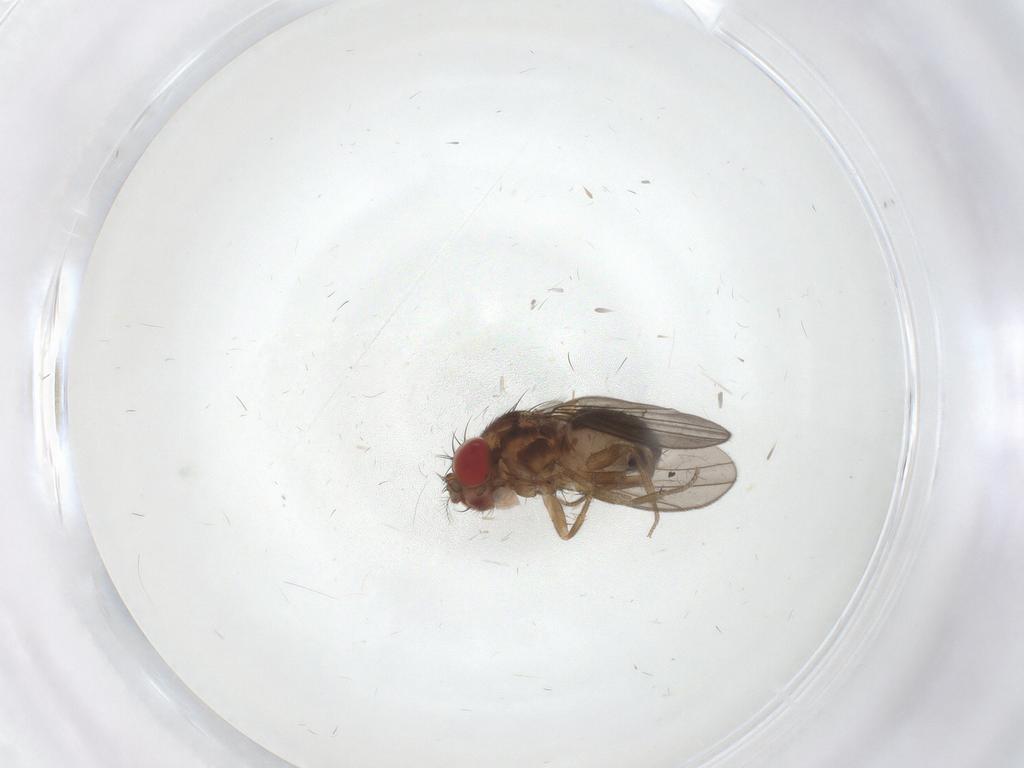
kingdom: Animalia
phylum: Arthropoda
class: Insecta
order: Diptera
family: Drosophilidae
